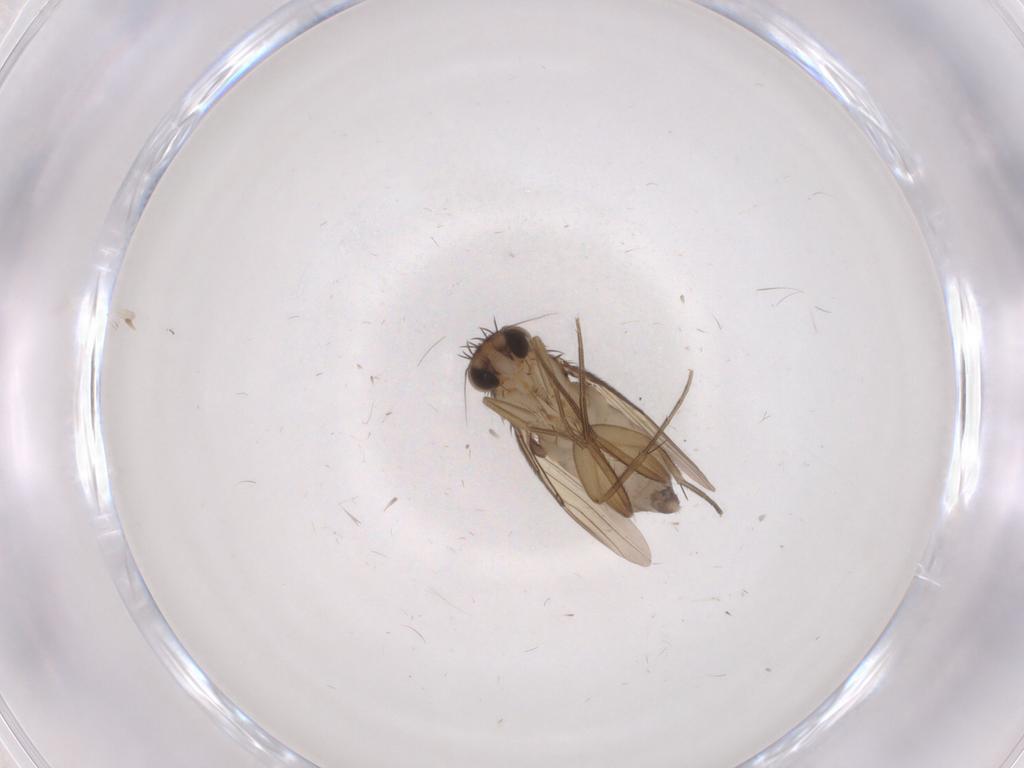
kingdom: Animalia
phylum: Arthropoda
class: Insecta
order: Diptera
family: Phoridae
